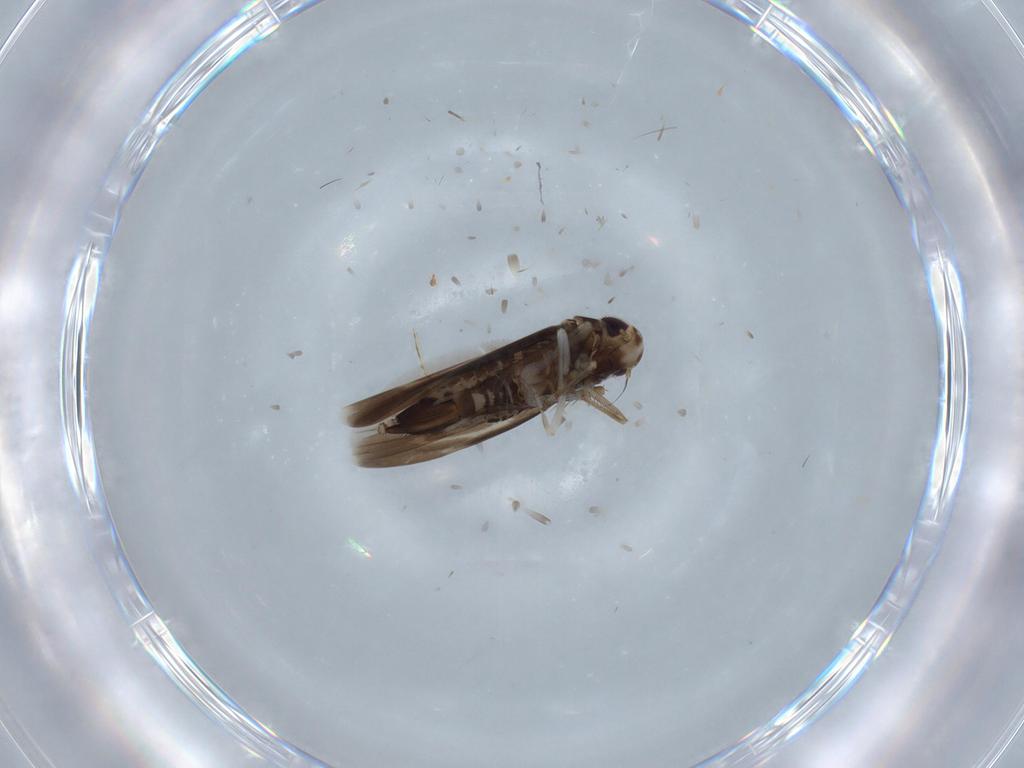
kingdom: Animalia
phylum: Arthropoda
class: Insecta
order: Hemiptera
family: Cicadellidae
